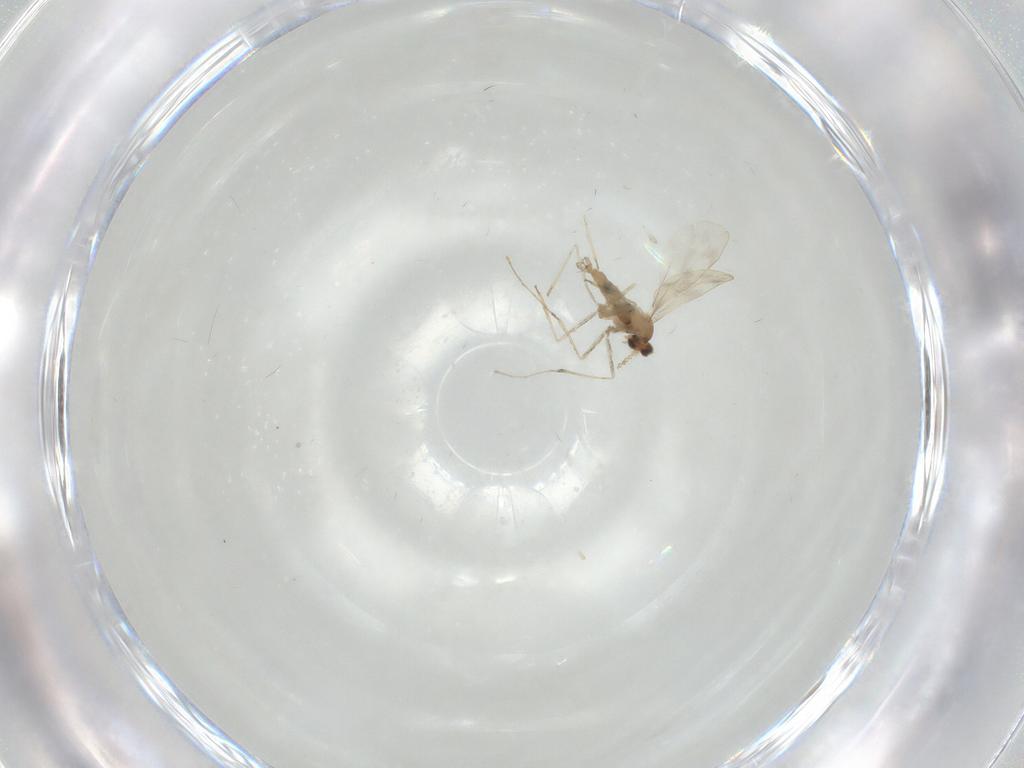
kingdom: Animalia
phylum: Arthropoda
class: Insecta
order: Diptera
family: Cecidomyiidae
